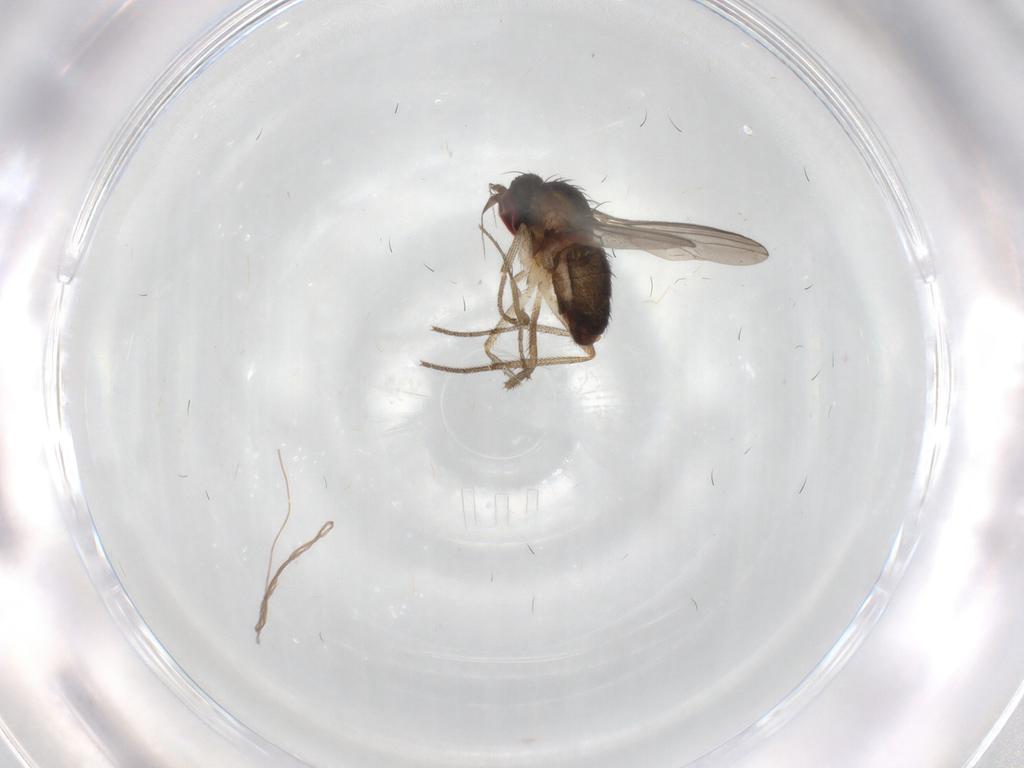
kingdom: Animalia
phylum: Arthropoda
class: Insecta
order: Diptera
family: Dolichopodidae
